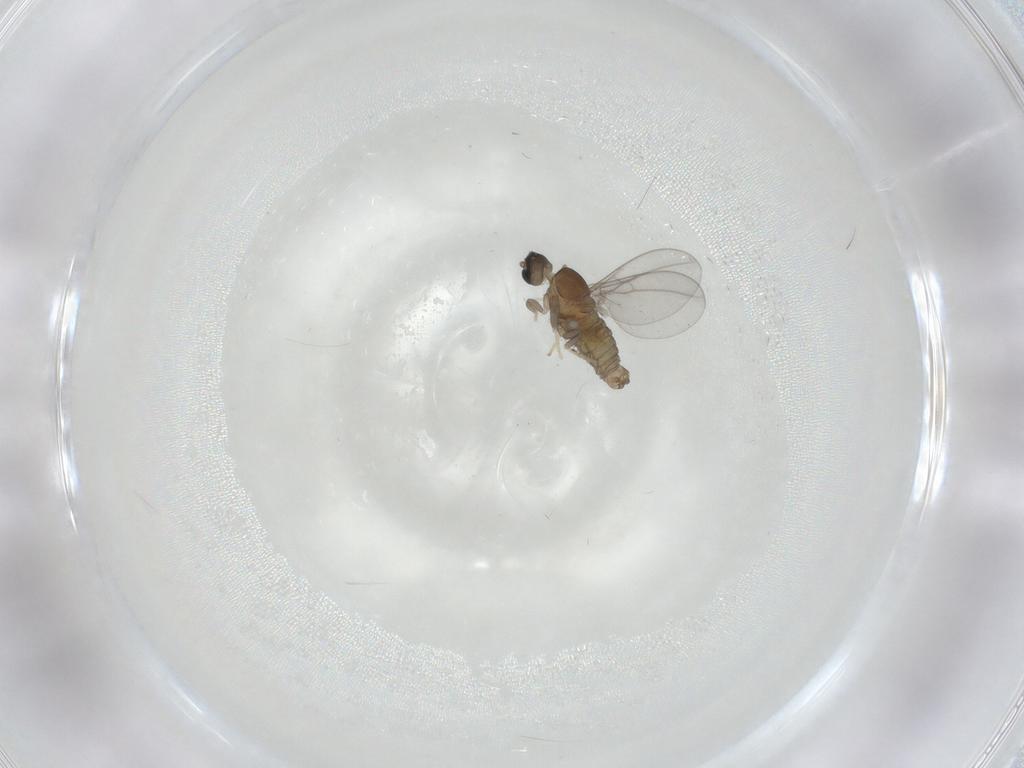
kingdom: Animalia
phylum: Arthropoda
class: Insecta
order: Diptera
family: Cecidomyiidae
